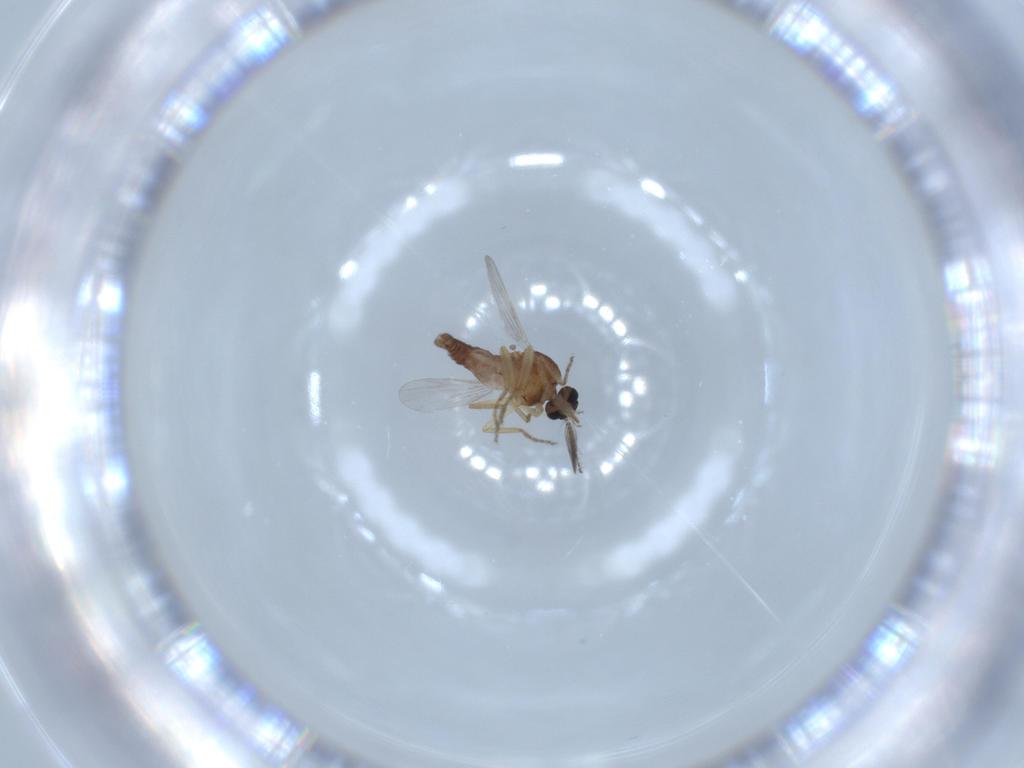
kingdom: Animalia
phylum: Arthropoda
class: Insecta
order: Diptera
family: Ceratopogonidae
